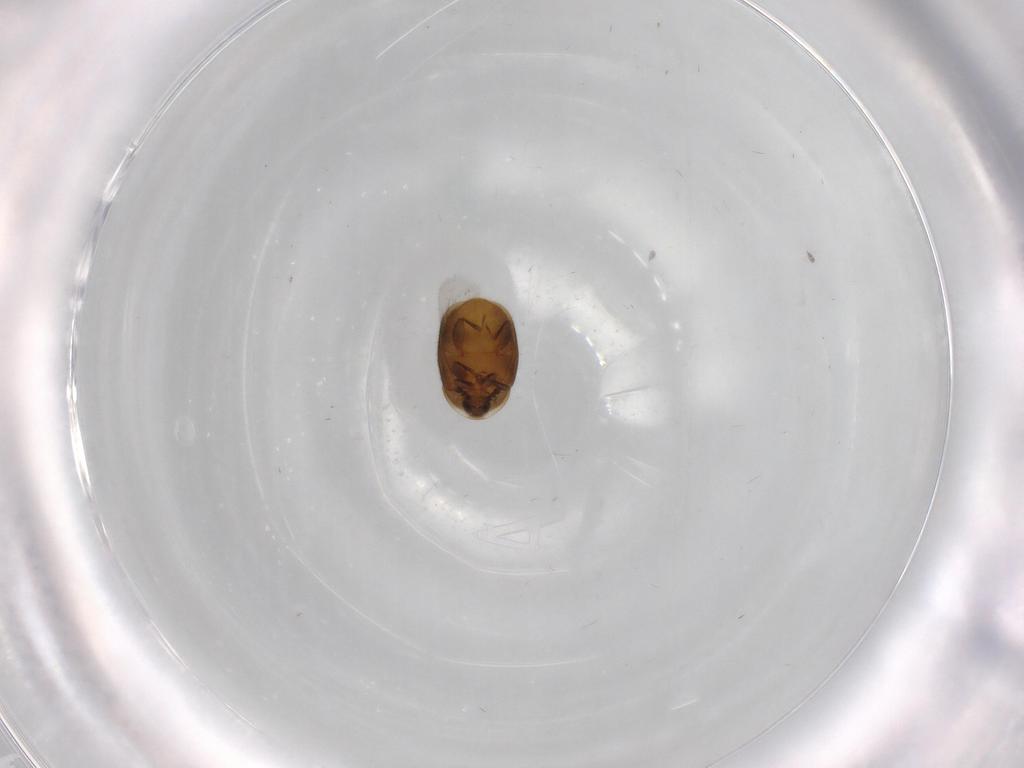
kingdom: Animalia
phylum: Arthropoda
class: Insecta
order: Coleoptera
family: Corylophidae
